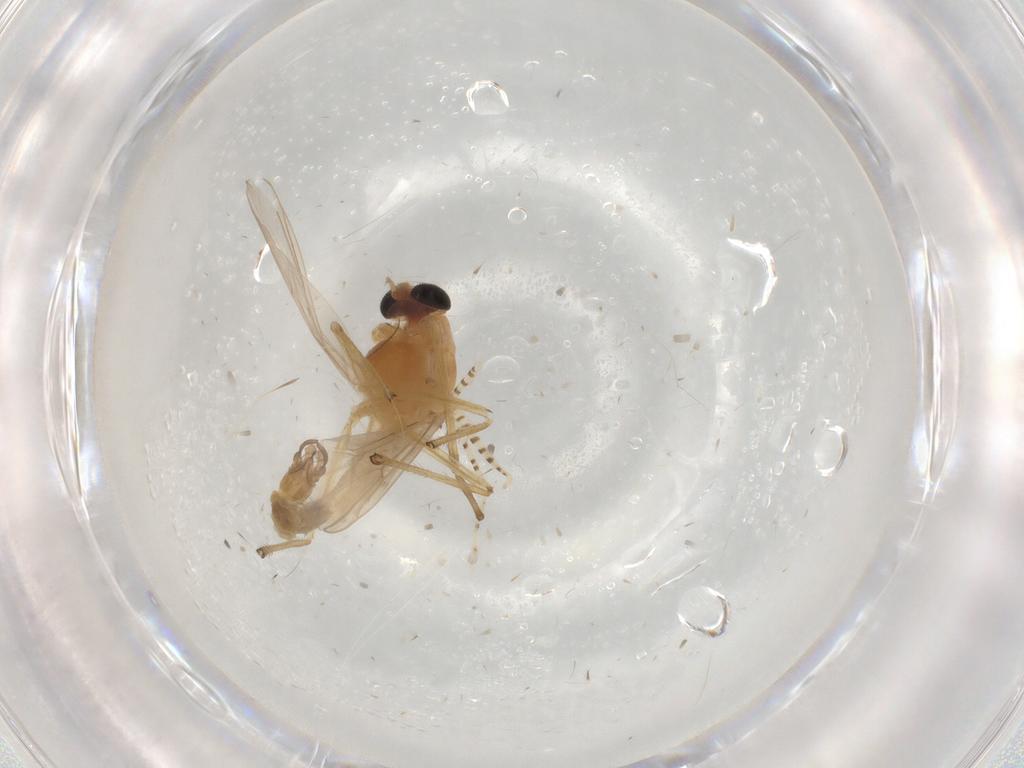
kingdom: Animalia
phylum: Arthropoda
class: Insecta
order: Diptera
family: Chironomidae
